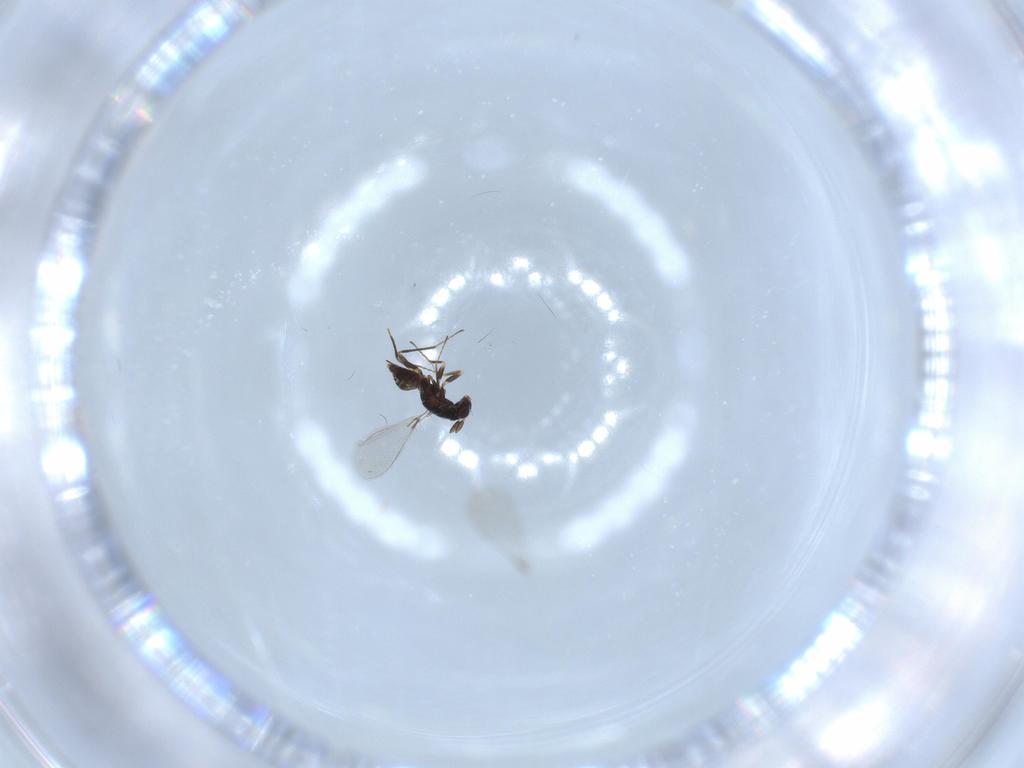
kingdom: Animalia
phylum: Arthropoda
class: Insecta
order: Hymenoptera
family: Mymaridae
